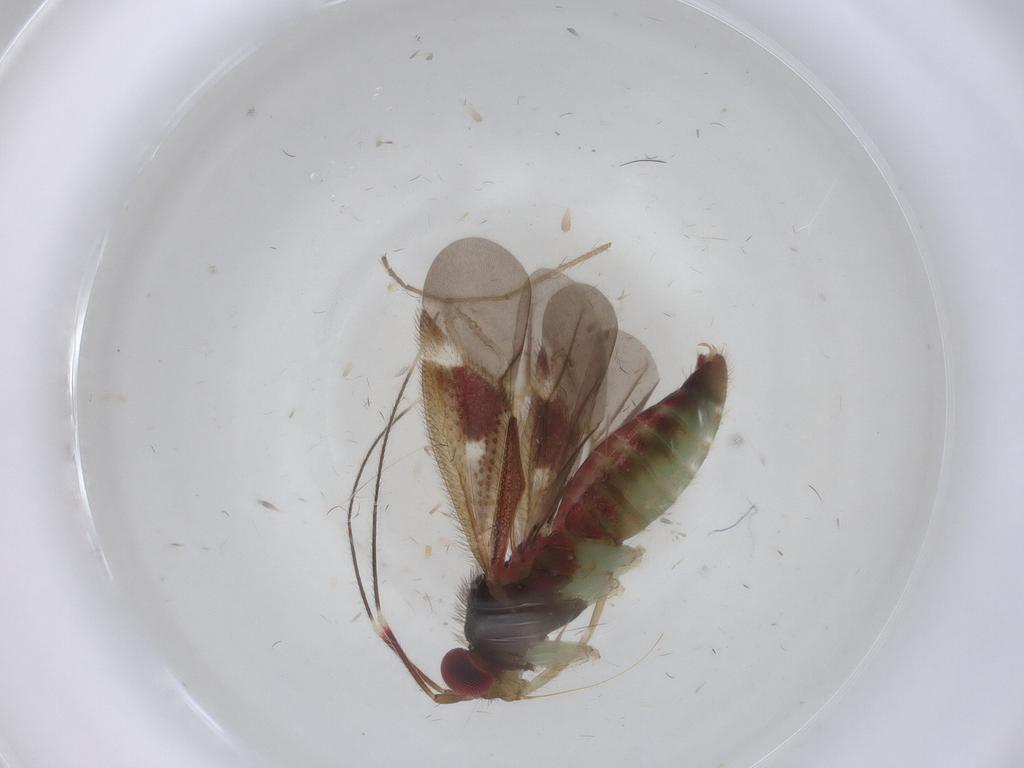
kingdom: Animalia
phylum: Arthropoda
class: Insecta
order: Hemiptera
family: Miridae
